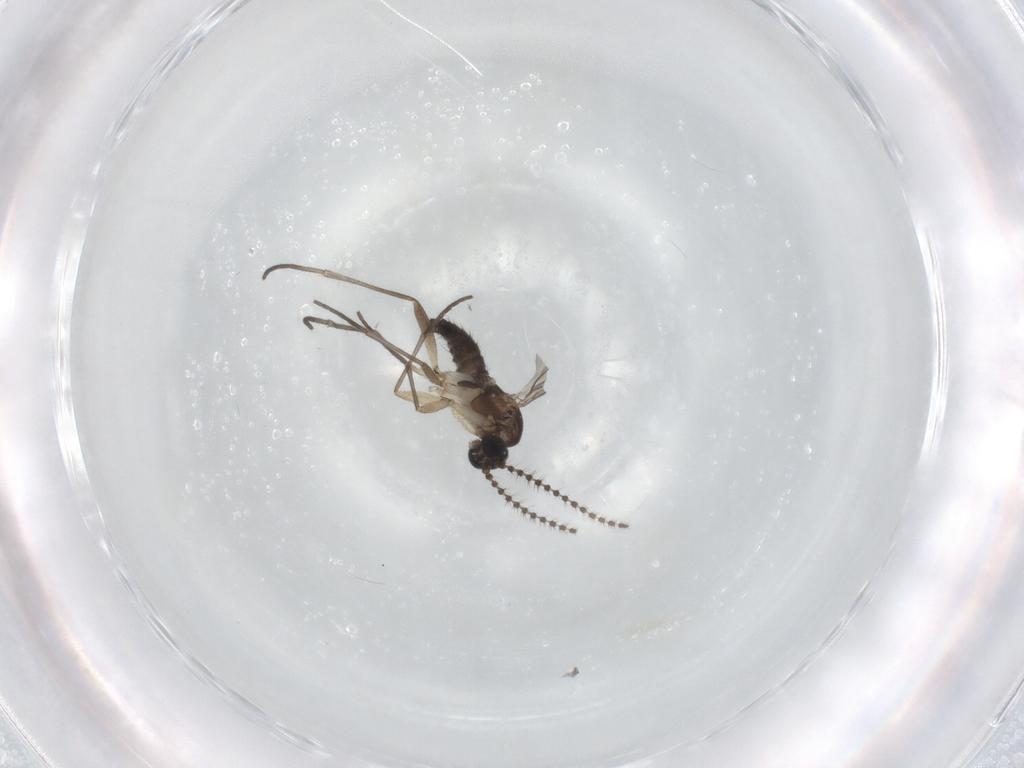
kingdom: Animalia
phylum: Arthropoda
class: Insecta
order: Diptera
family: Sciaridae
